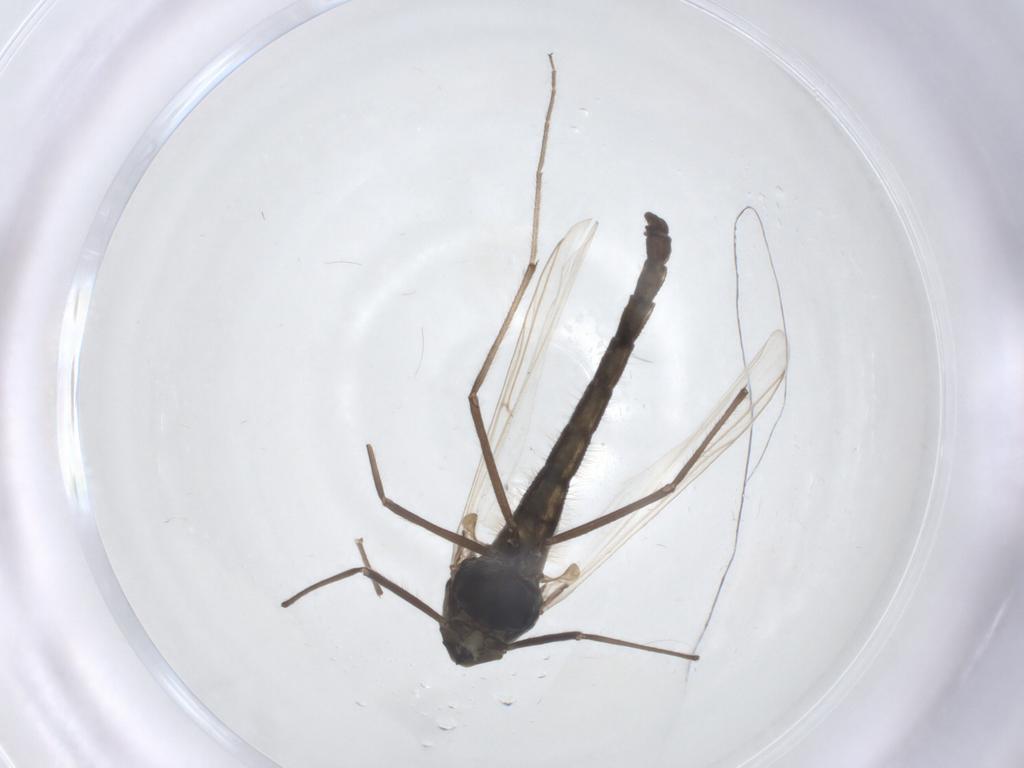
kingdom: Animalia
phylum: Arthropoda
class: Insecta
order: Diptera
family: Chironomidae
